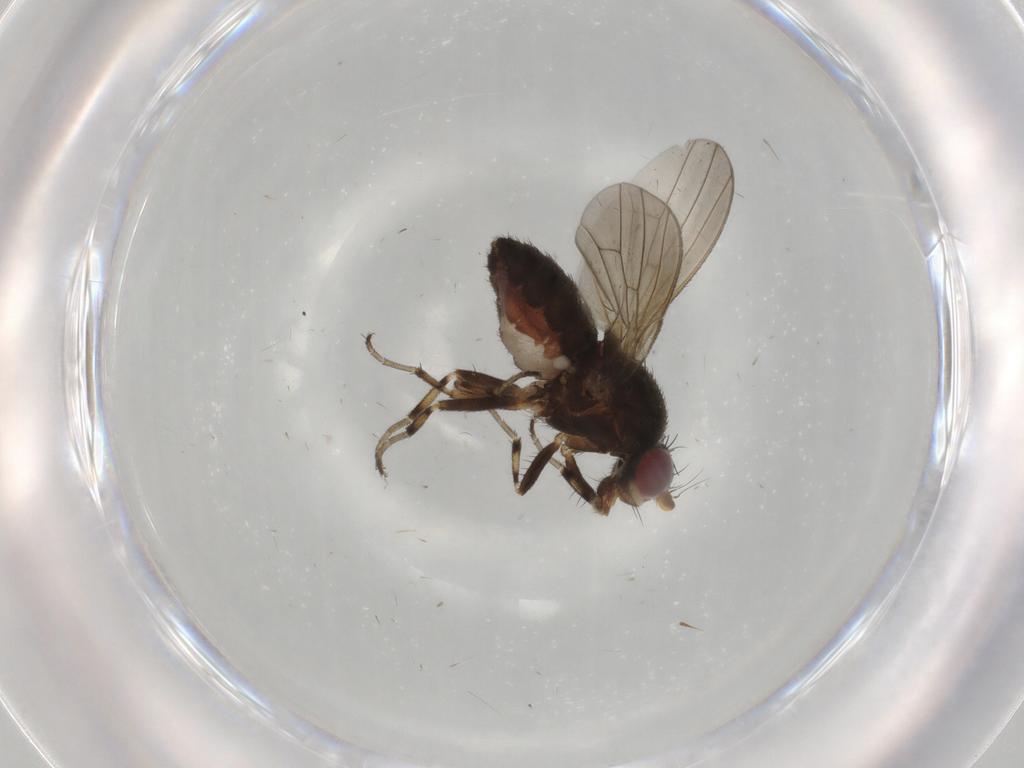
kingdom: Animalia
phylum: Arthropoda
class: Insecta
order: Diptera
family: Heleomyzidae
